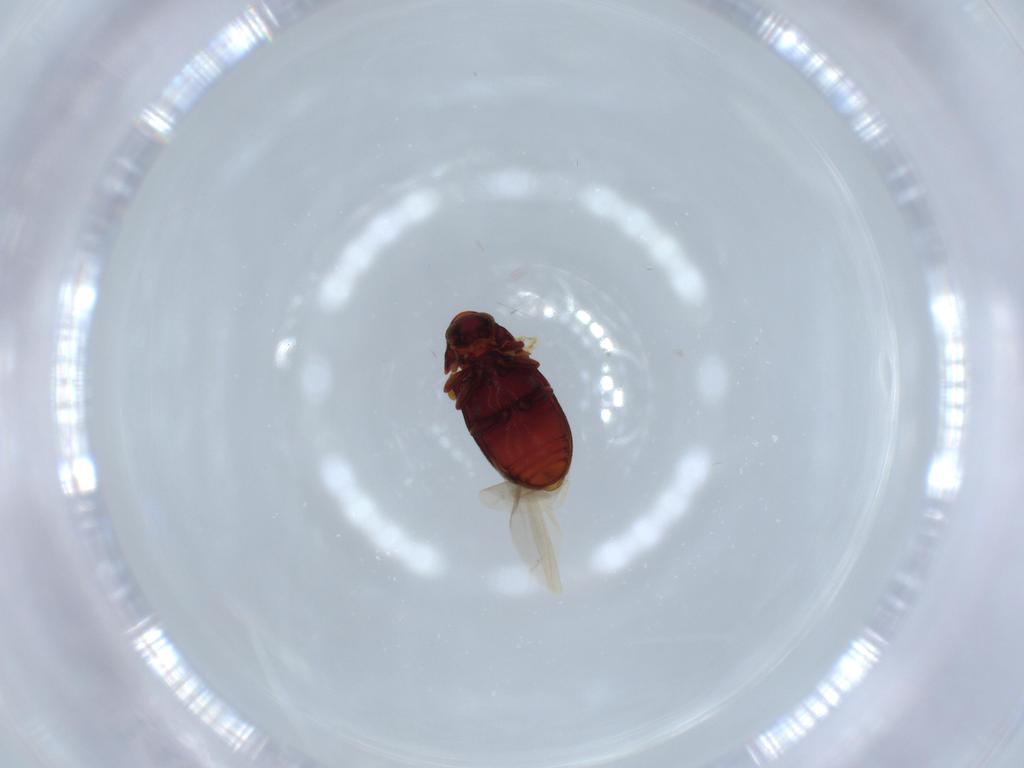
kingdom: Animalia
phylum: Arthropoda
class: Insecta
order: Coleoptera
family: Ptinidae
